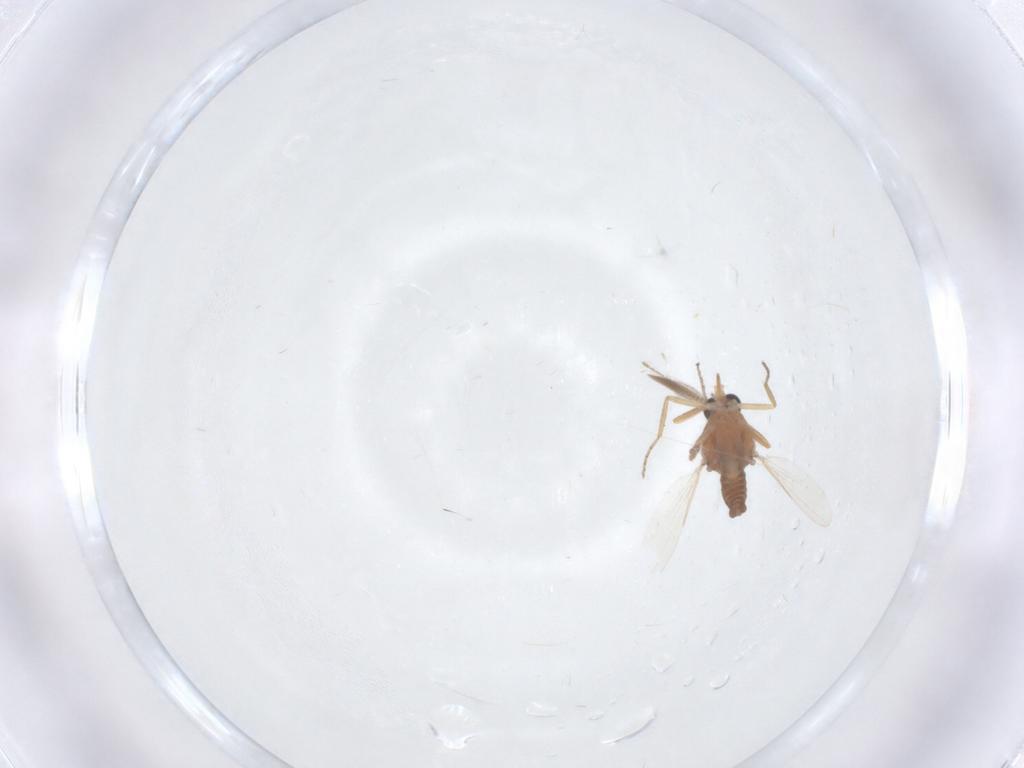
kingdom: Animalia
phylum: Arthropoda
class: Insecta
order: Diptera
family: Ceratopogonidae
